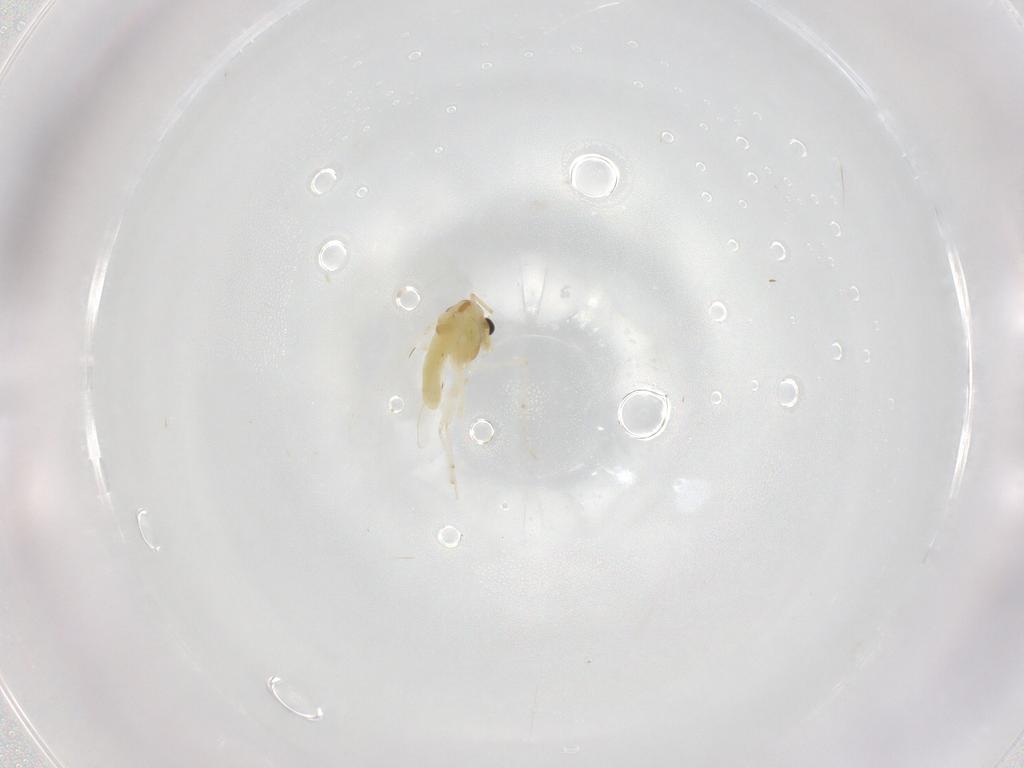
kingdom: Animalia
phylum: Arthropoda
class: Insecta
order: Diptera
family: Chironomidae
